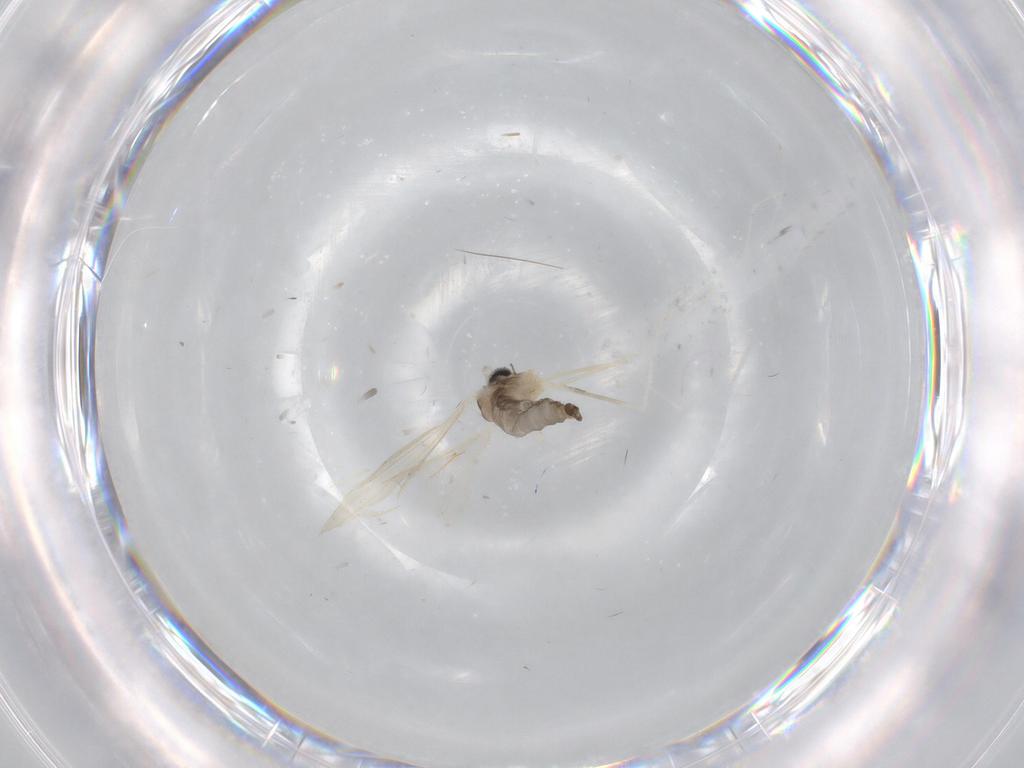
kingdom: Animalia
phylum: Arthropoda
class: Insecta
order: Diptera
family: Cecidomyiidae
